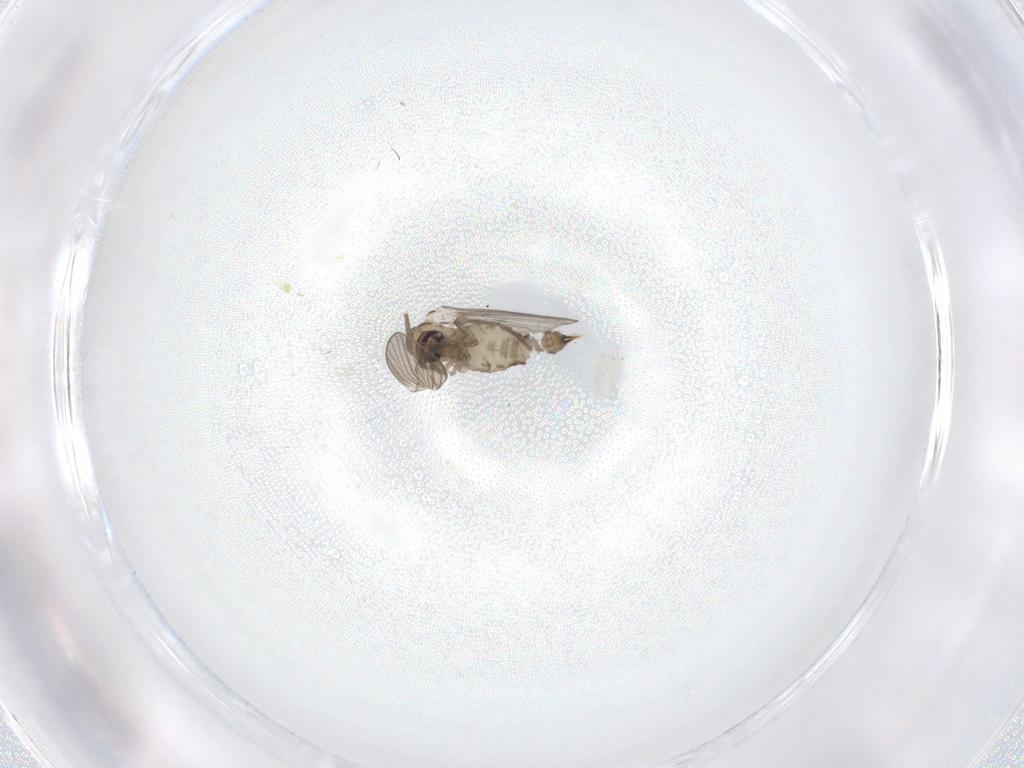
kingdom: Animalia
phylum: Arthropoda
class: Insecta
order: Diptera
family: Psychodidae
